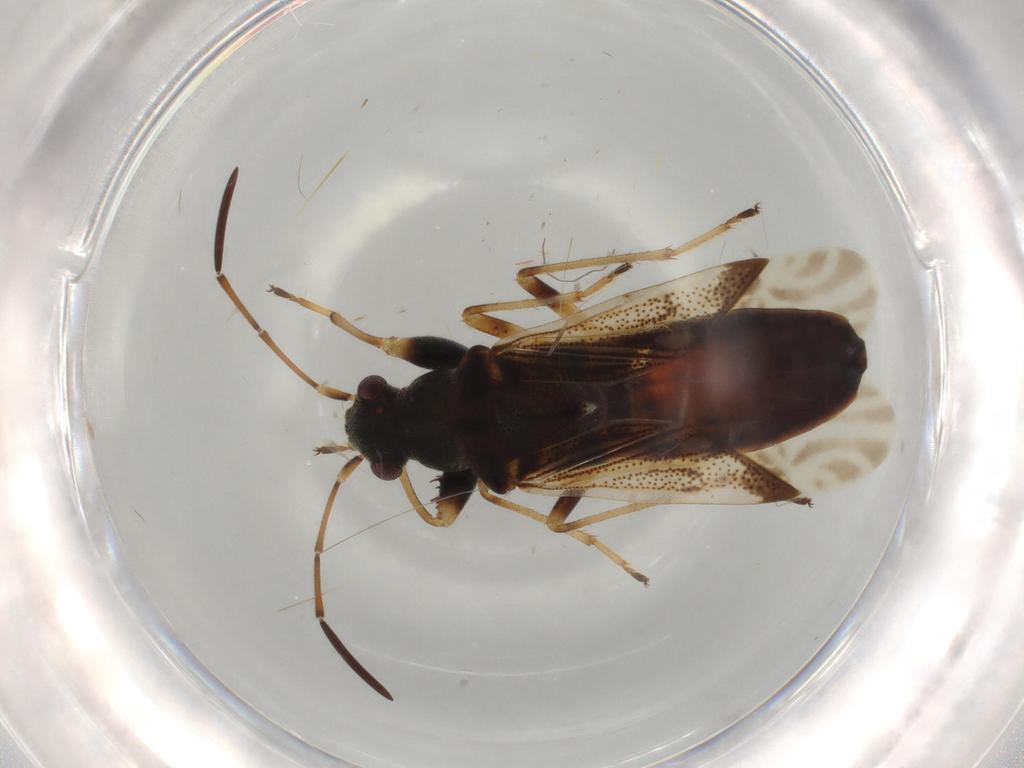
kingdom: Animalia
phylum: Arthropoda
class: Insecta
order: Hemiptera
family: Rhyparochromidae
